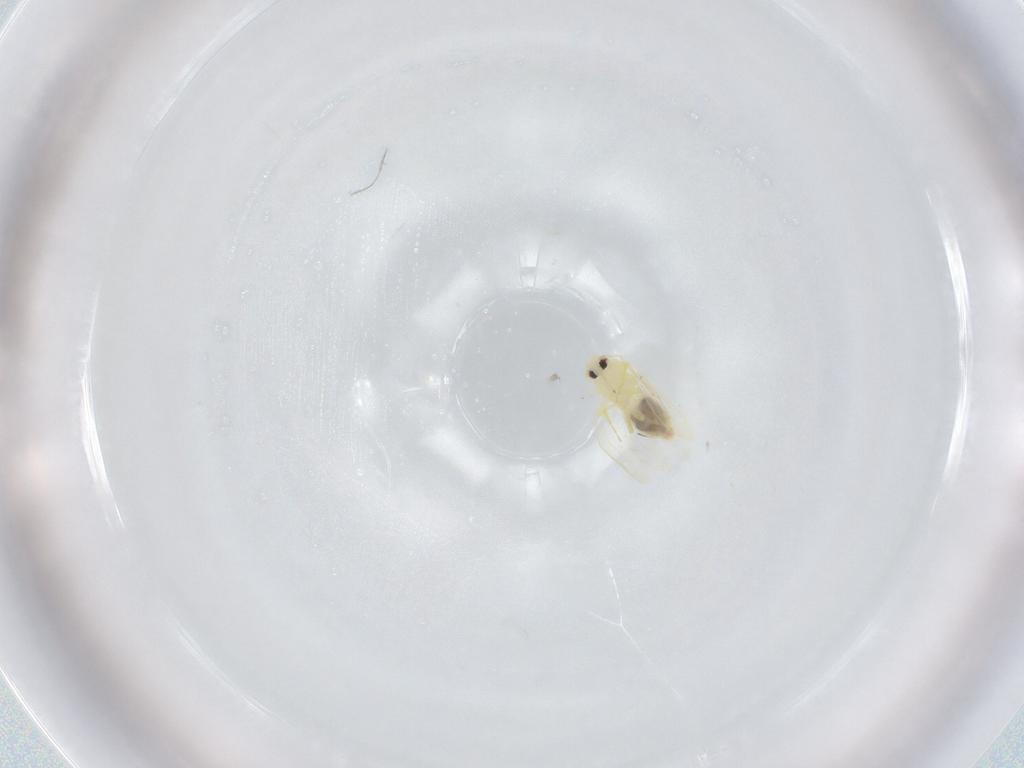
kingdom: Animalia
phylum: Arthropoda
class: Insecta
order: Hemiptera
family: Aleyrodidae
